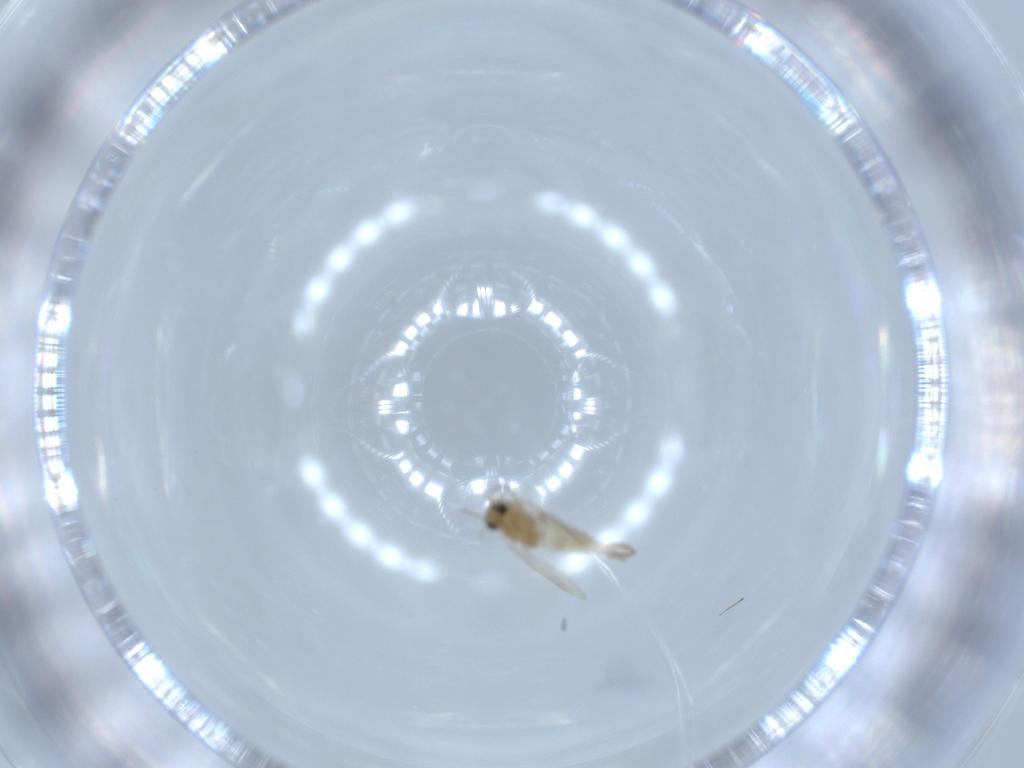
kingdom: Animalia
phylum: Arthropoda
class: Insecta
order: Diptera
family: Psychodidae
